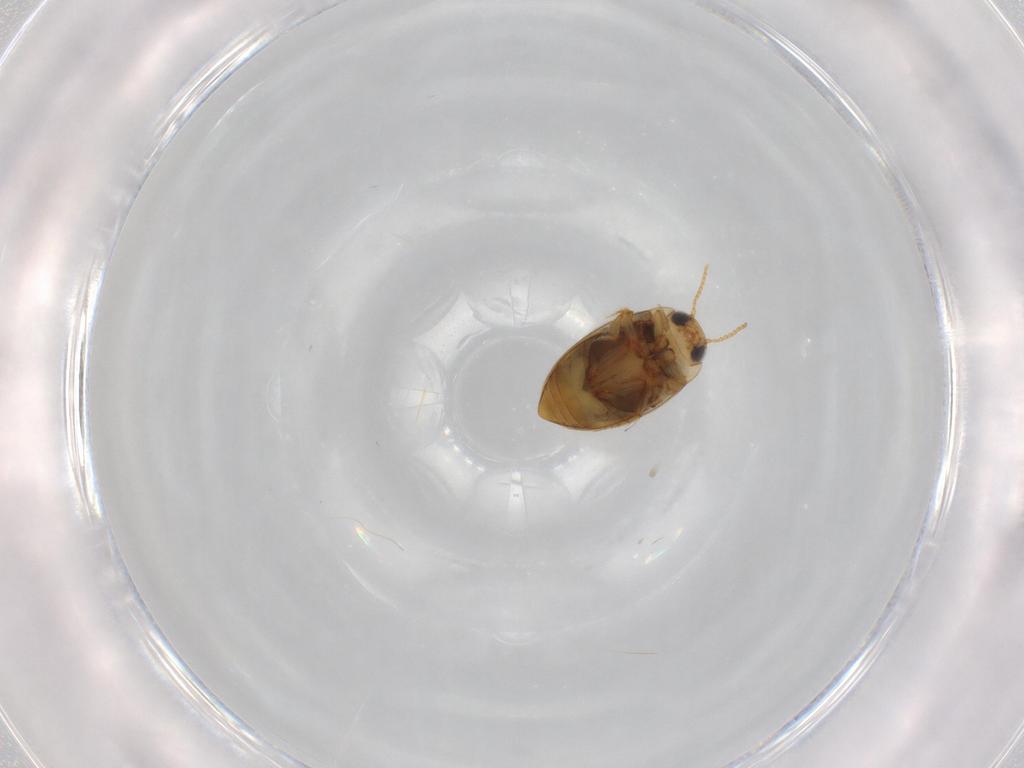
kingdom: Animalia
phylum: Arthropoda
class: Insecta
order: Coleoptera
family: Dytiscidae
